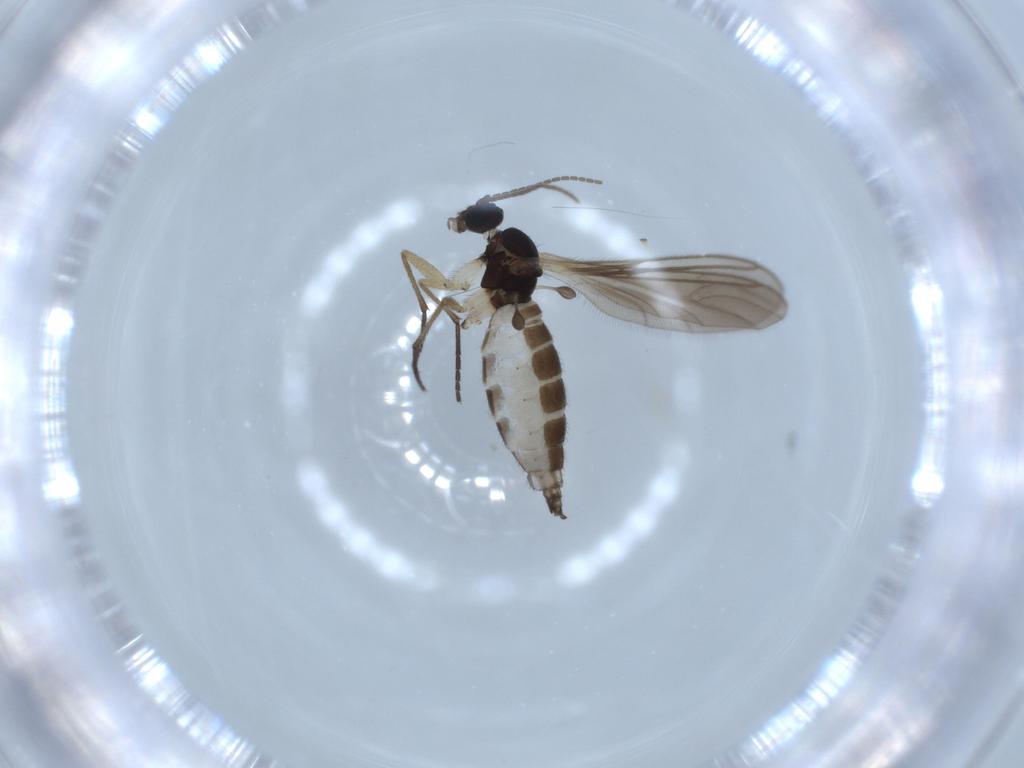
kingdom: Animalia
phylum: Arthropoda
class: Insecta
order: Diptera
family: Sciaridae
